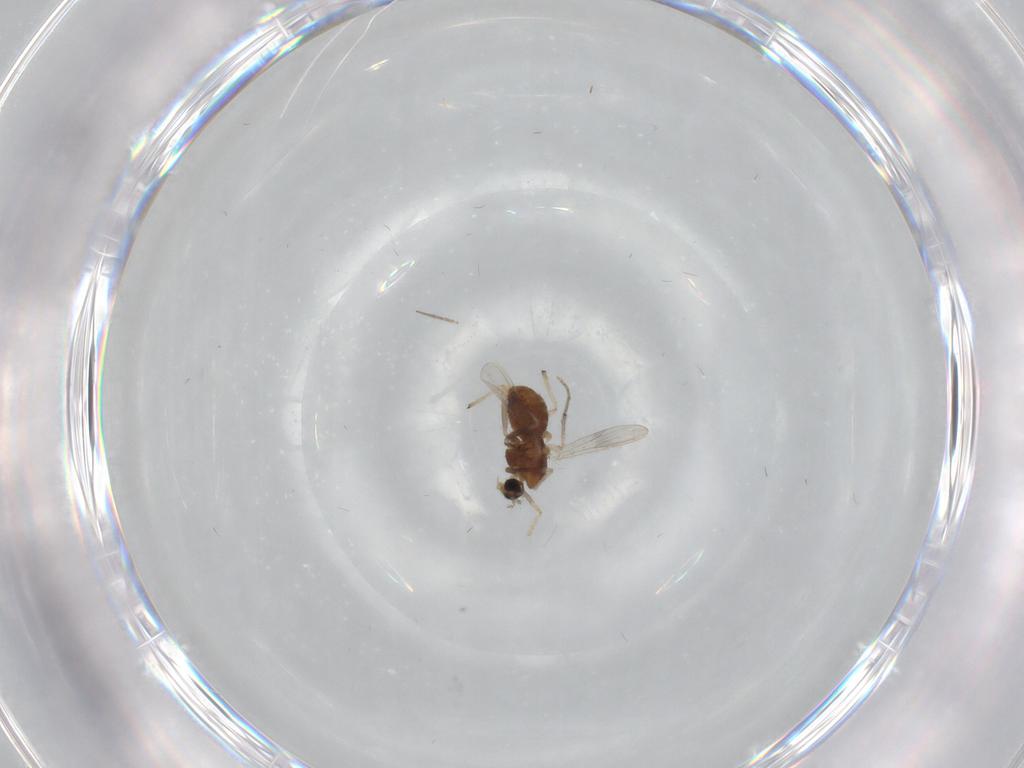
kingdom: Animalia
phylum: Arthropoda
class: Insecta
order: Diptera
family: Chironomidae
